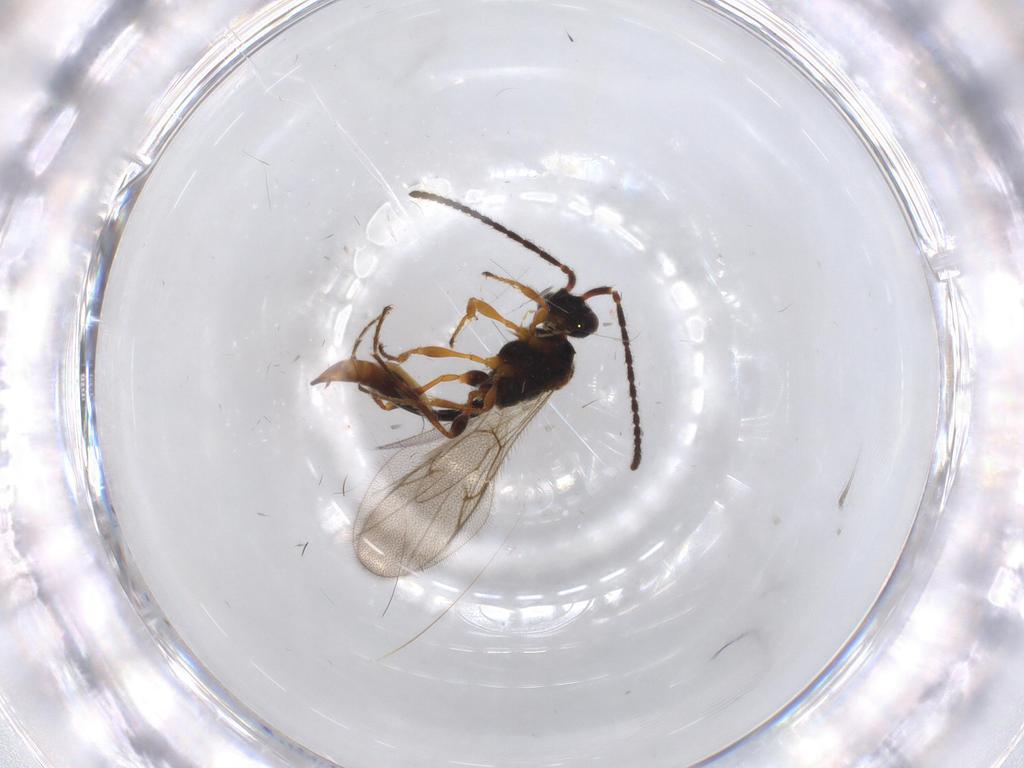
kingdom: Animalia
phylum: Arthropoda
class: Insecta
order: Hymenoptera
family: Diapriidae
